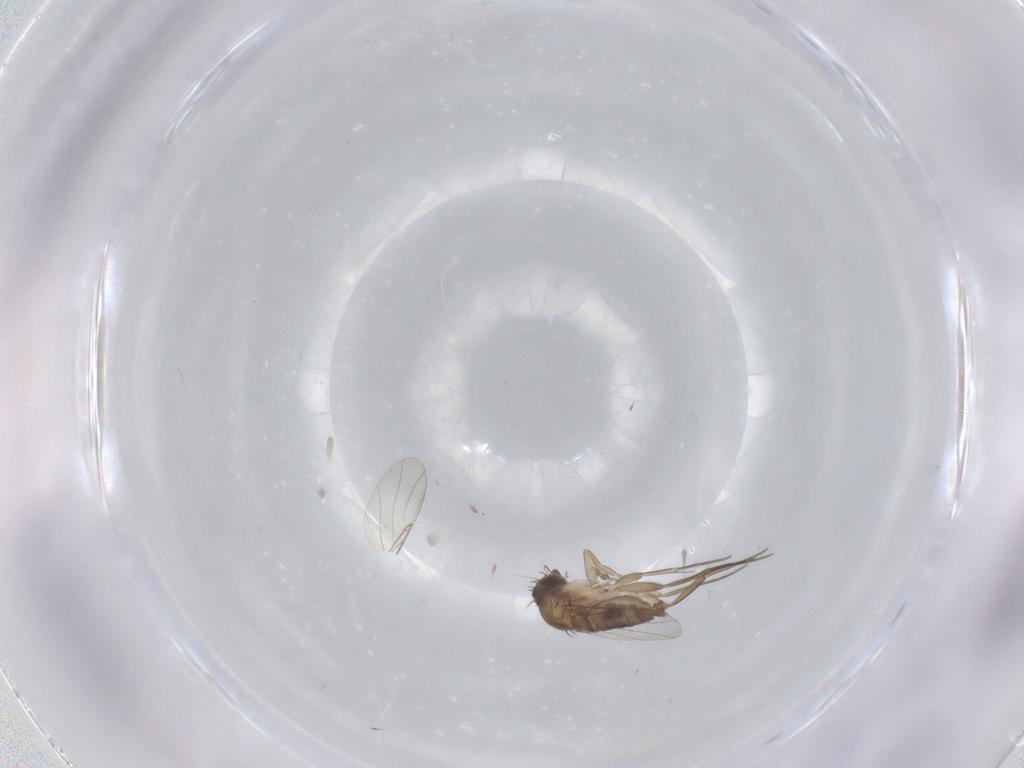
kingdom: Animalia
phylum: Arthropoda
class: Insecta
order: Diptera
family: Phoridae
